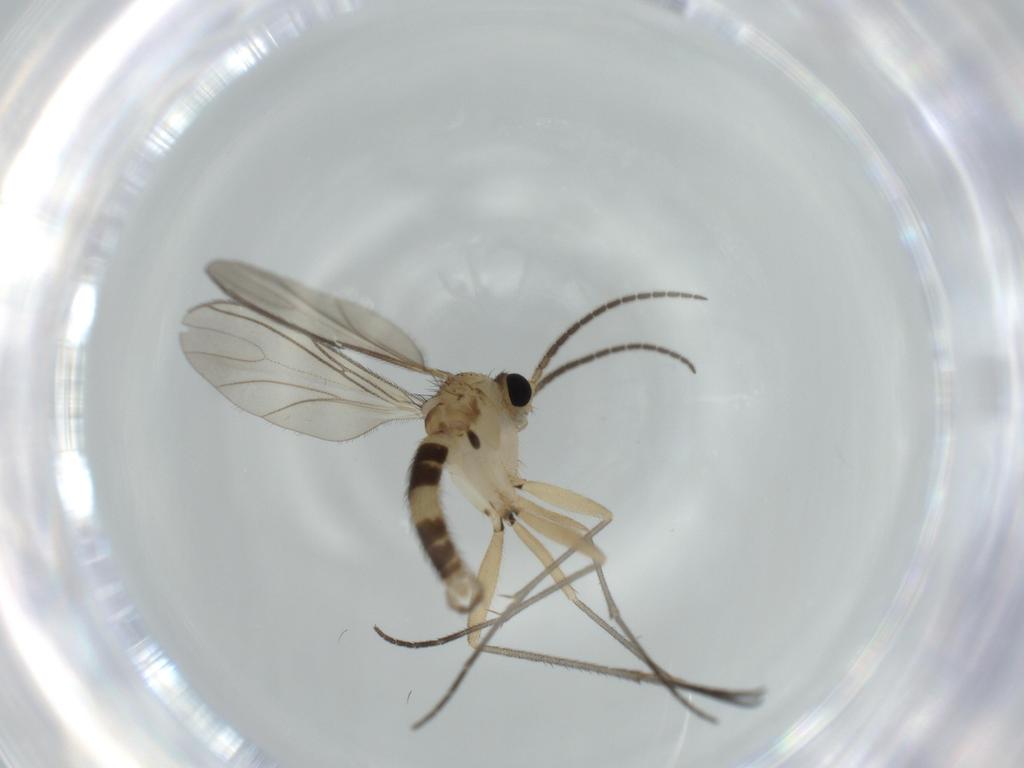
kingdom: Animalia
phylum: Arthropoda
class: Insecta
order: Diptera
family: Sciaridae
